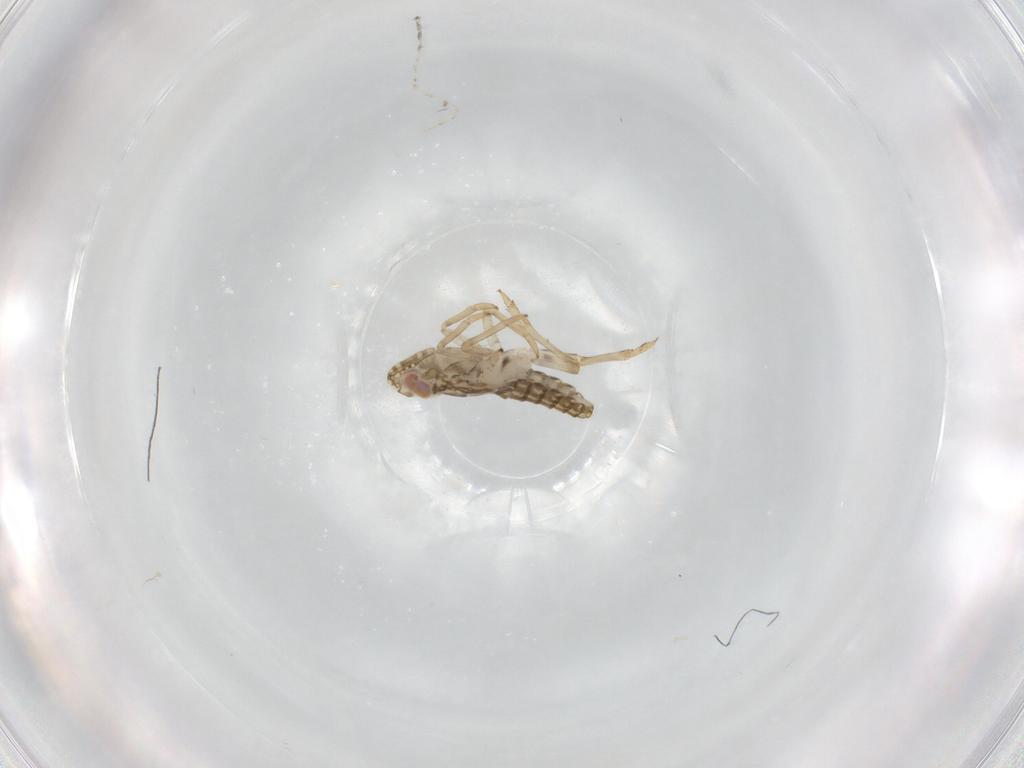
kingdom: Animalia
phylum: Arthropoda
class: Insecta
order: Hemiptera
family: Delphacidae
